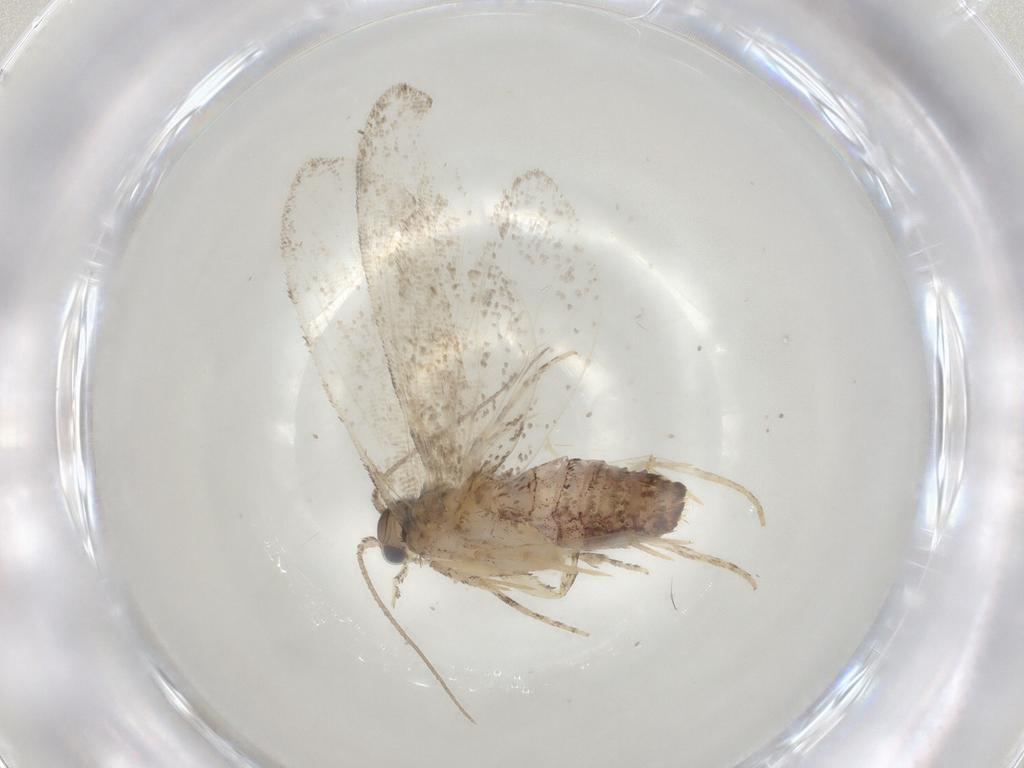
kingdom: Animalia
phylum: Arthropoda
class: Insecta
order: Lepidoptera
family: Tineidae
